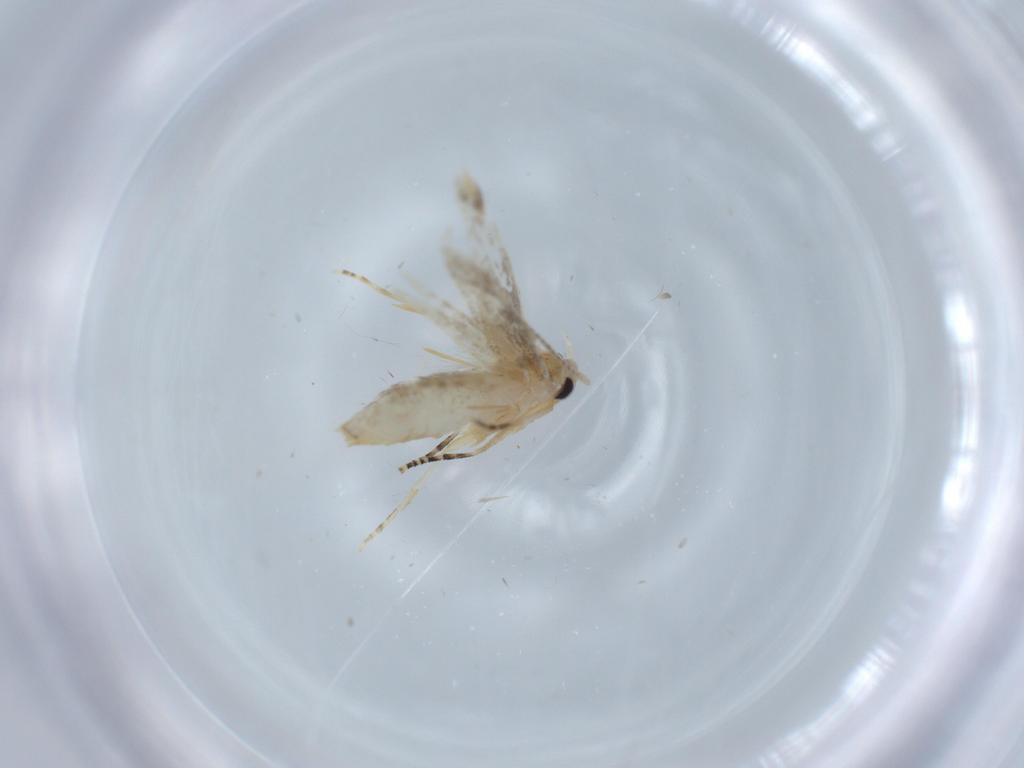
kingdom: Animalia
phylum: Arthropoda
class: Insecta
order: Lepidoptera
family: Bucculatricidae
